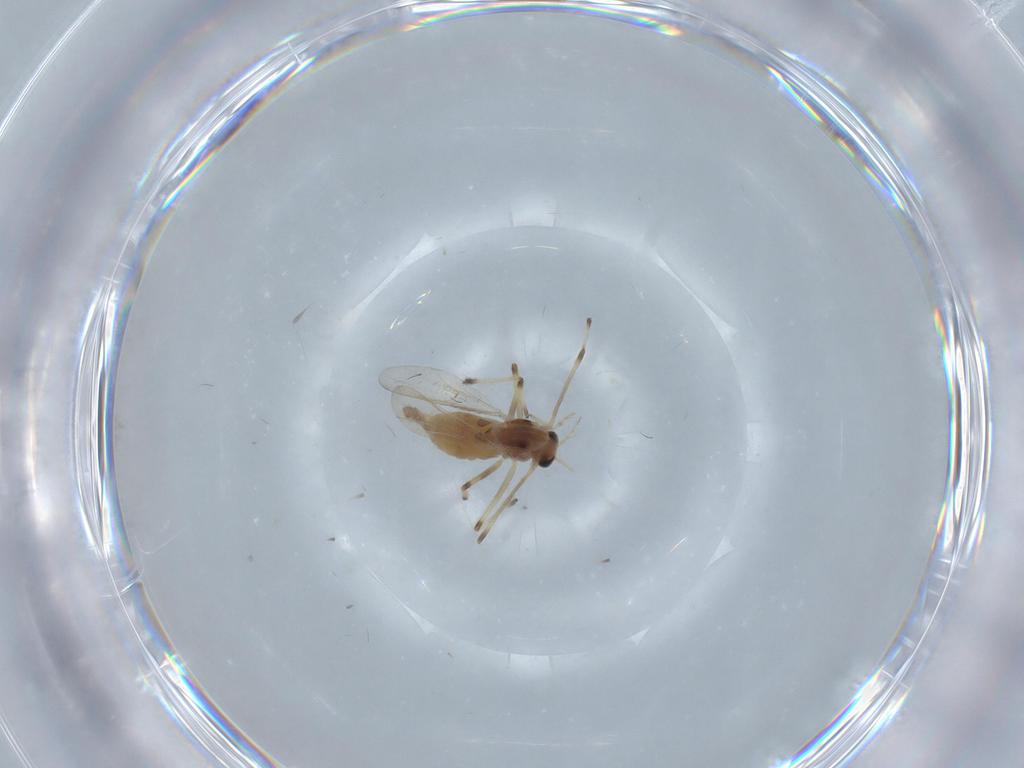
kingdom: Animalia
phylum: Arthropoda
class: Insecta
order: Diptera
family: Chironomidae
